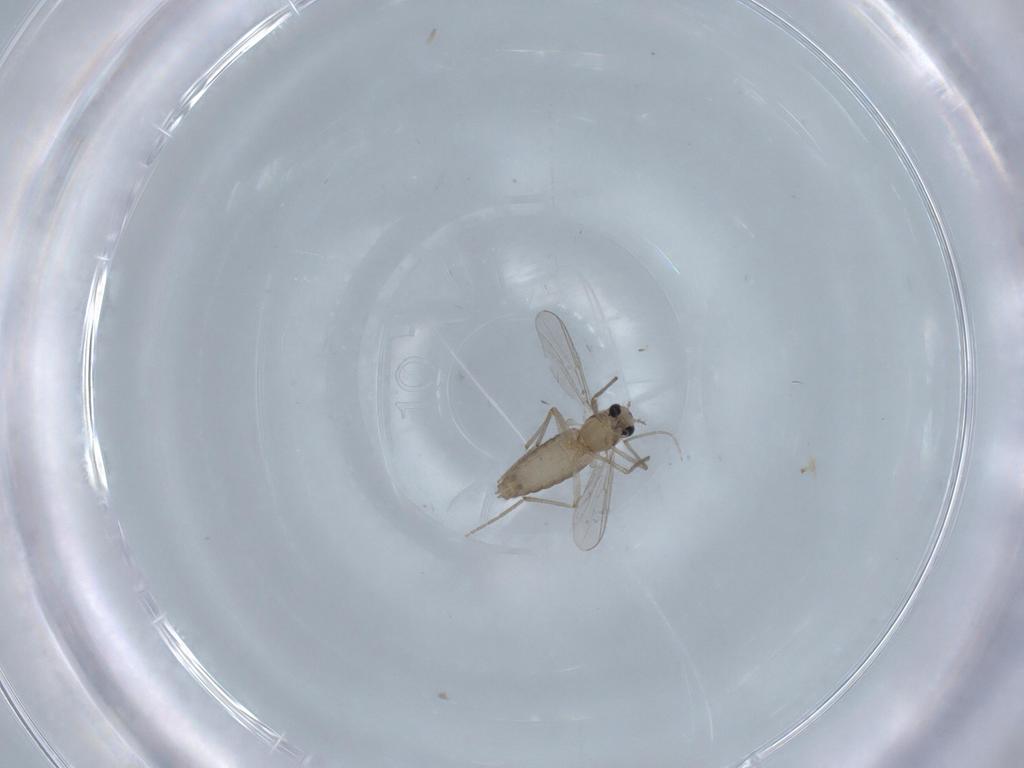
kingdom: Animalia
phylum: Arthropoda
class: Insecta
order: Diptera
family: Chironomidae
